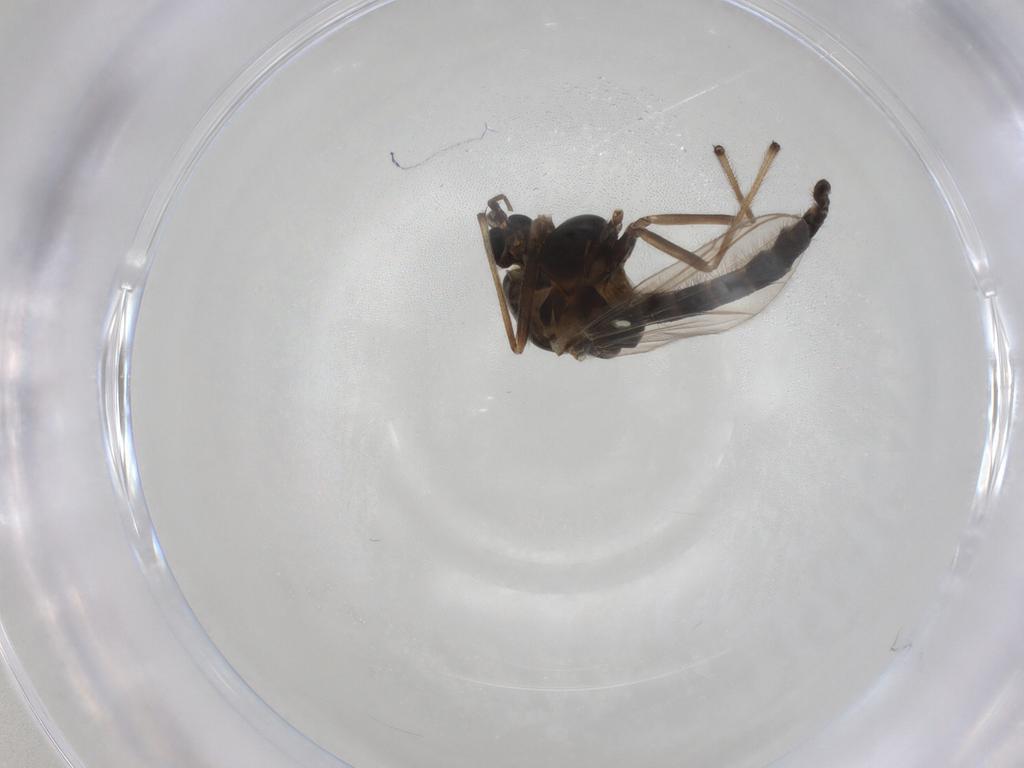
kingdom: Animalia
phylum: Arthropoda
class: Insecta
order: Diptera
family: Chironomidae
